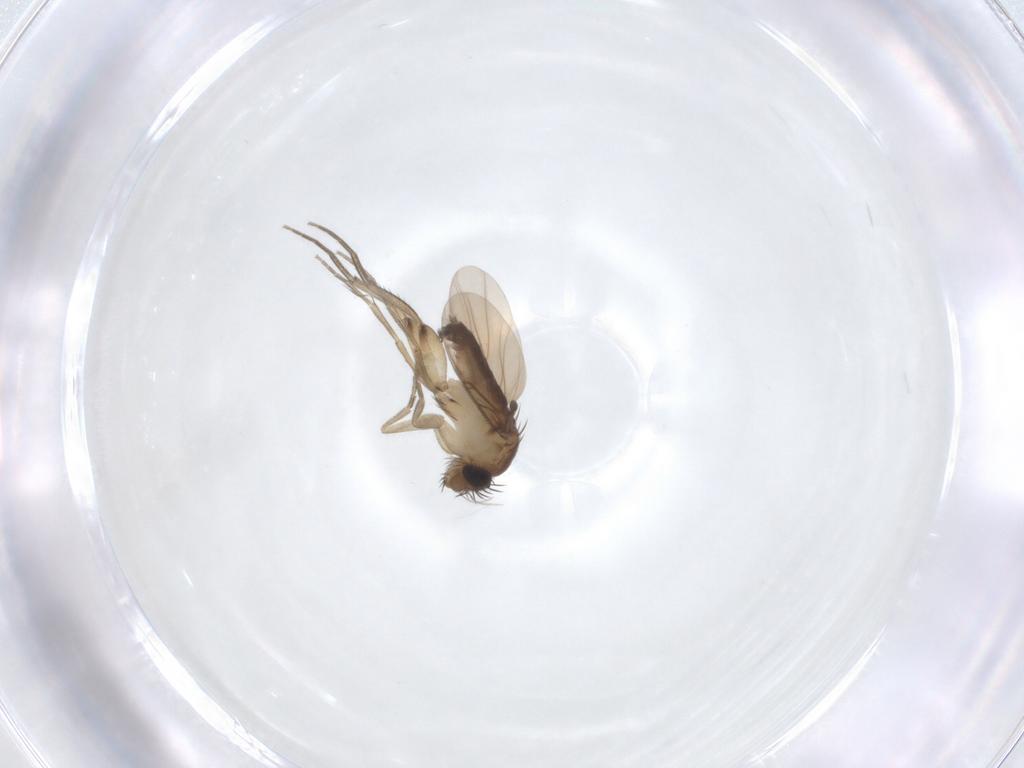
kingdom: Animalia
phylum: Arthropoda
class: Insecta
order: Diptera
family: Phoridae
